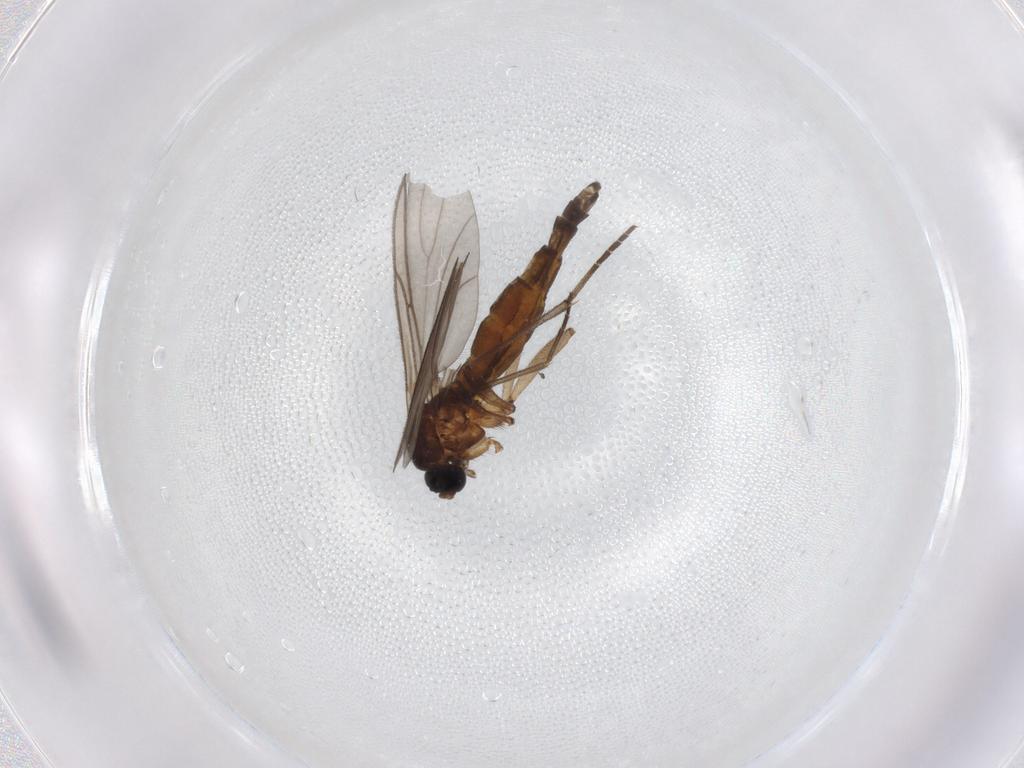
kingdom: Animalia
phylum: Arthropoda
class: Insecta
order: Diptera
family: Sciaridae
